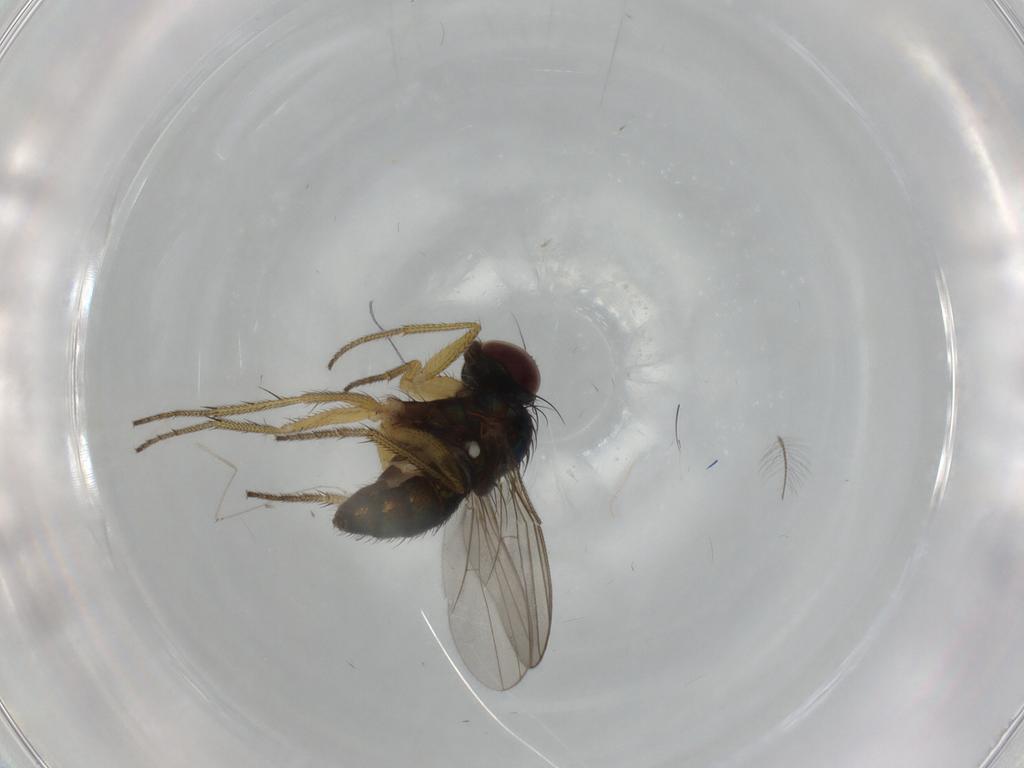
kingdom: Animalia
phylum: Arthropoda
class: Insecta
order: Diptera
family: Cecidomyiidae
